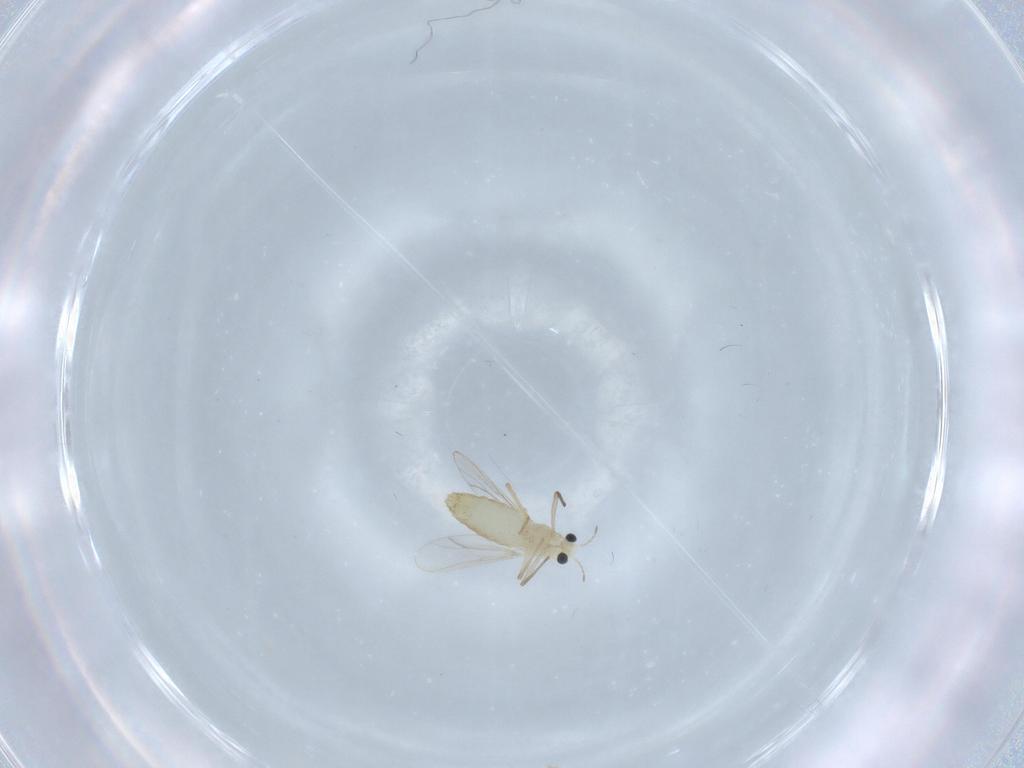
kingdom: Animalia
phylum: Arthropoda
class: Insecta
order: Diptera
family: Chironomidae
